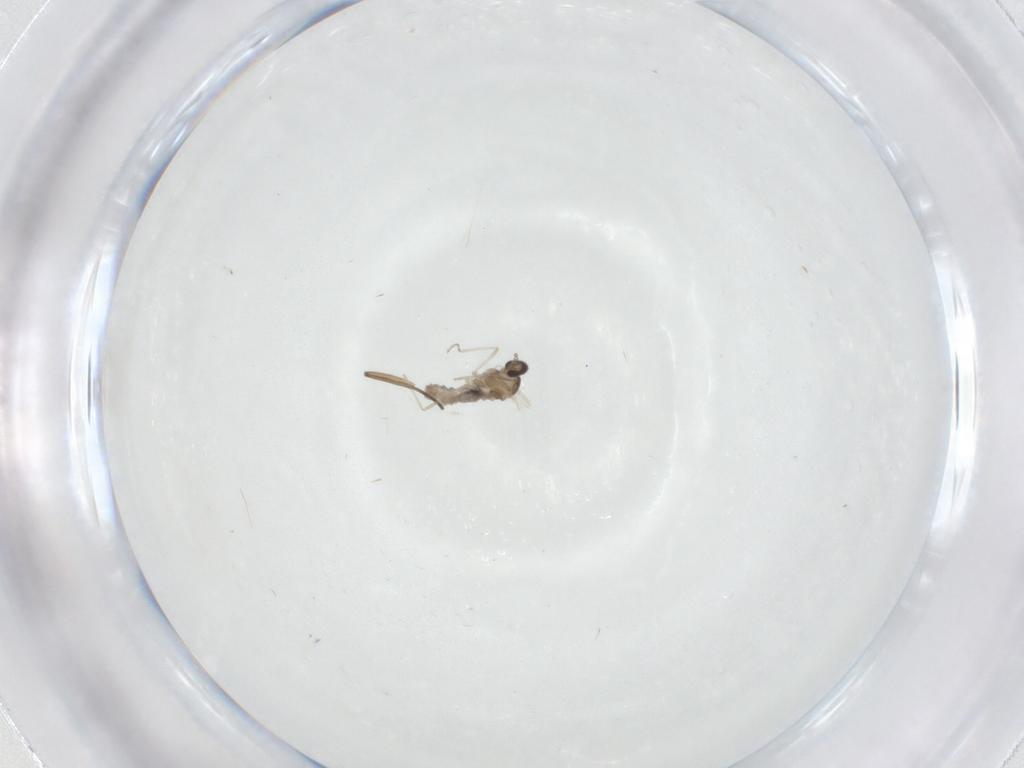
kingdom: Animalia
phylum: Arthropoda
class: Insecta
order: Diptera
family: Cecidomyiidae
